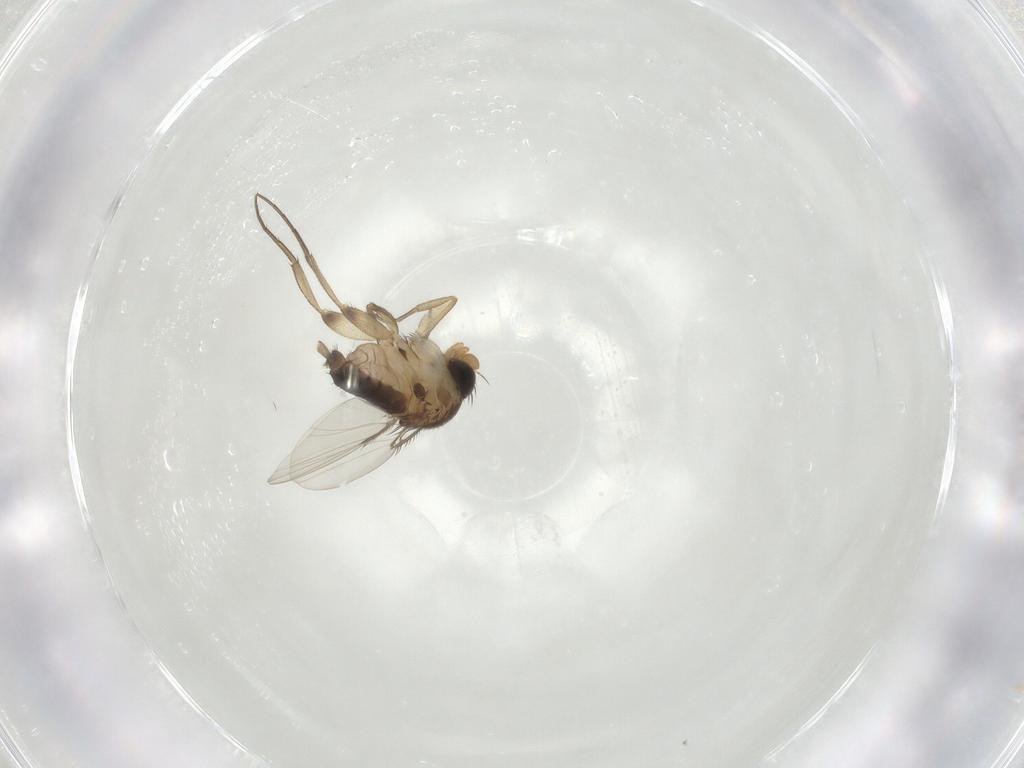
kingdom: Animalia
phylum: Arthropoda
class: Insecta
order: Diptera
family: Phoridae
